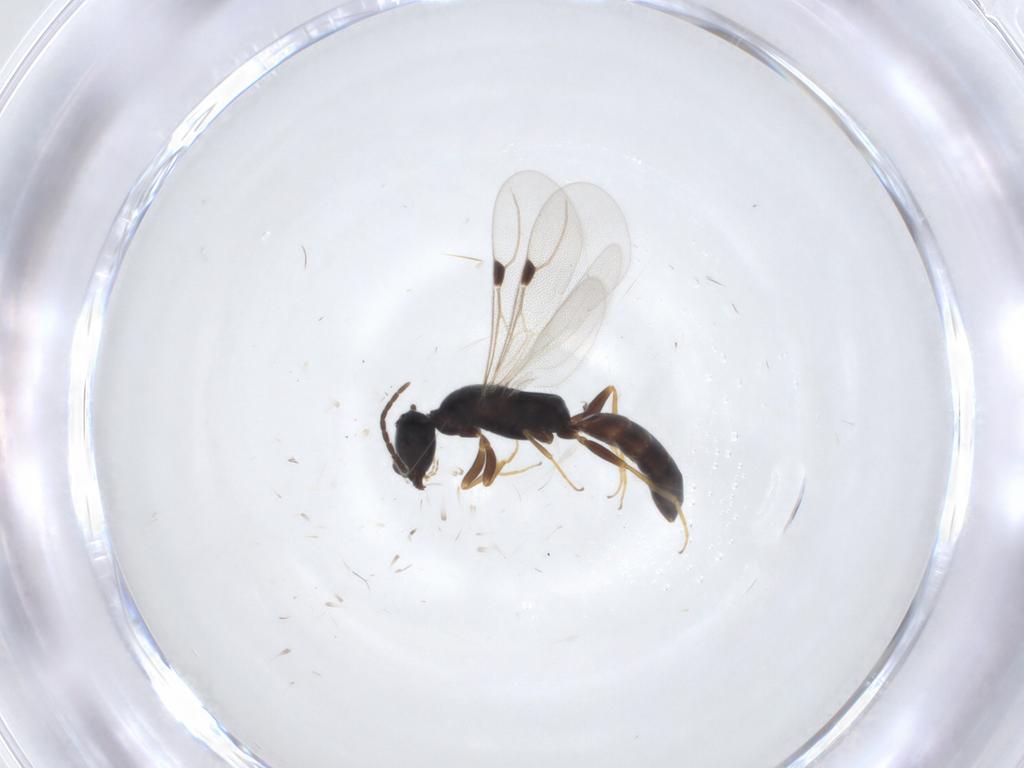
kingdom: Animalia
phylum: Arthropoda
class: Insecta
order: Hymenoptera
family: Bethylidae
